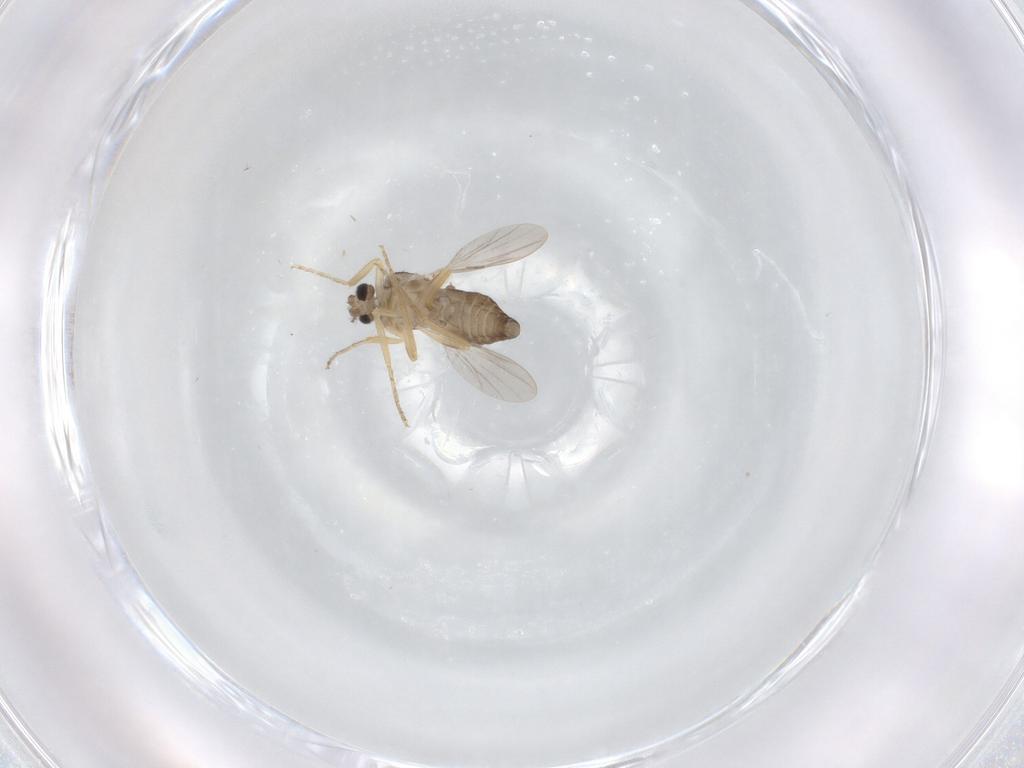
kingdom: Animalia
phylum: Arthropoda
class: Insecta
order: Diptera
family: Ceratopogonidae
